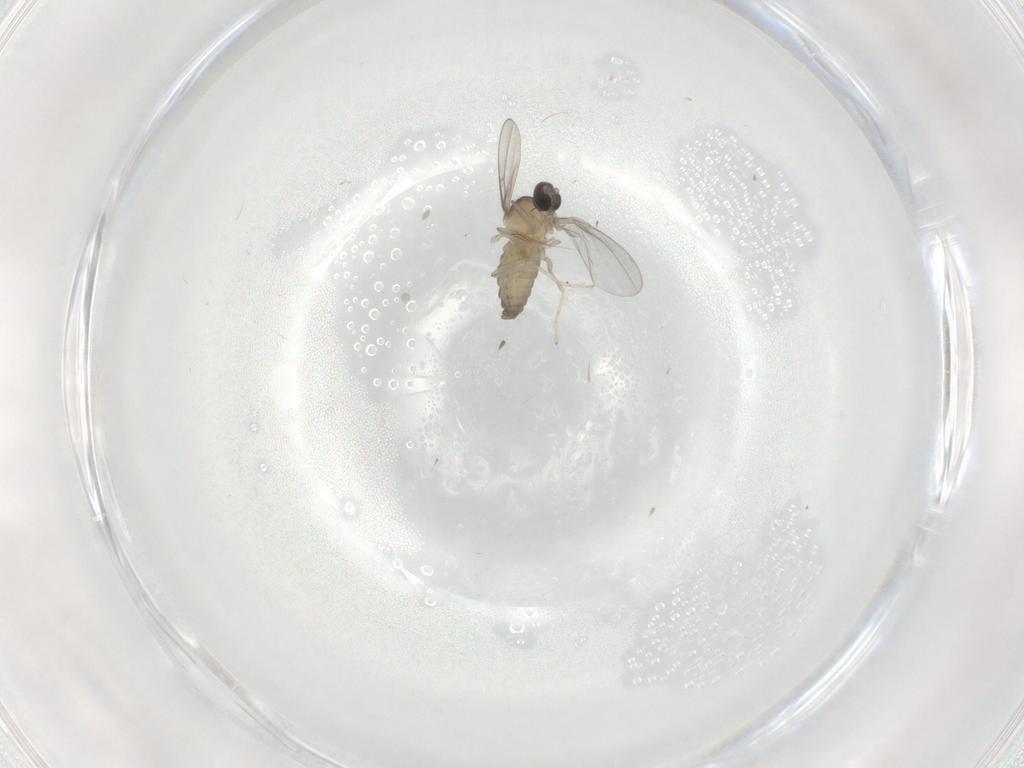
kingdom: Animalia
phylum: Arthropoda
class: Insecta
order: Diptera
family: Cecidomyiidae
